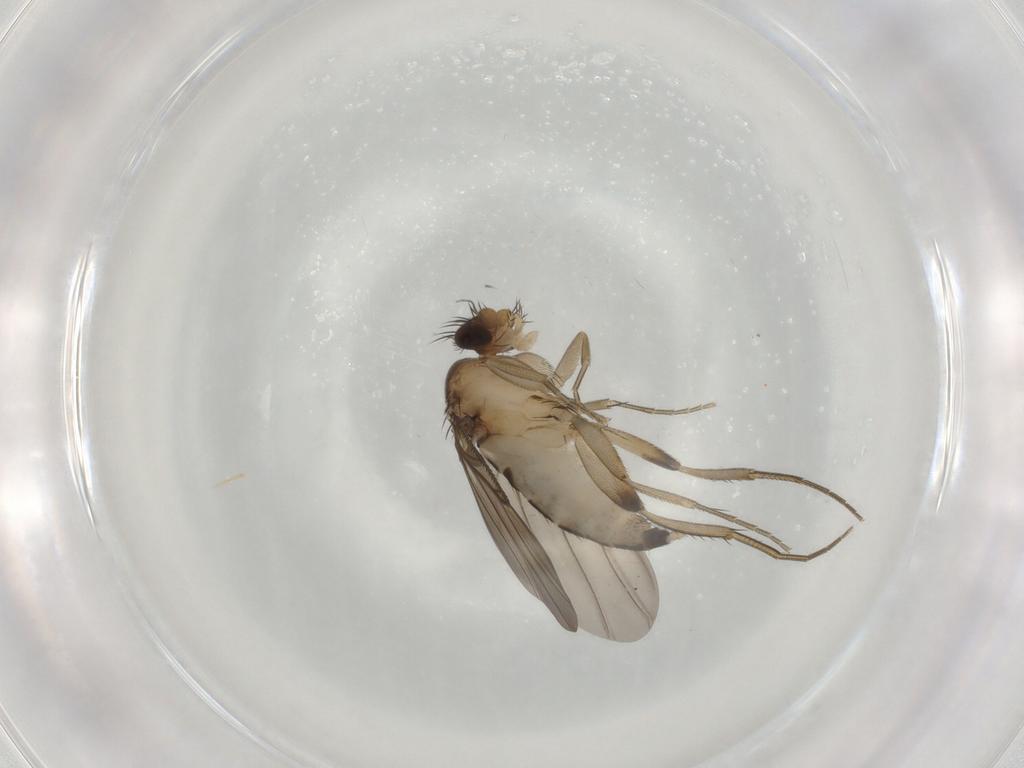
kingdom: Animalia
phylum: Arthropoda
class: Insecta
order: Diptera
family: Phoridae
